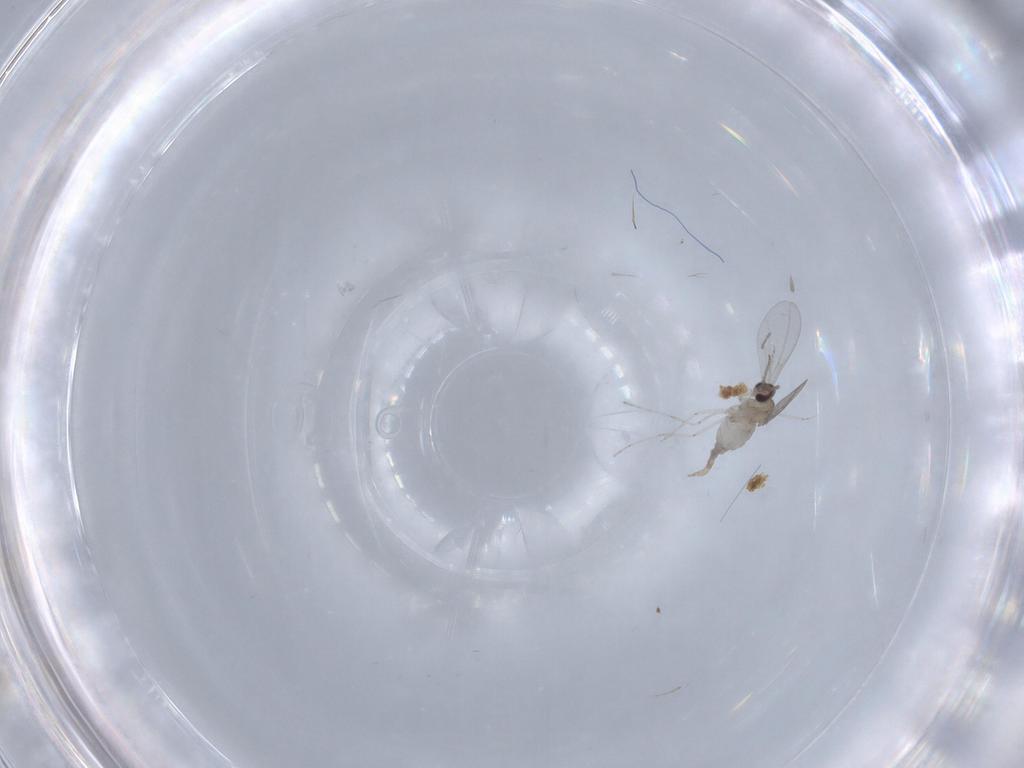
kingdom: Animalia
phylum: Arthropoda
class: Insecta
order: Diptera
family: Cecidomyiidae
